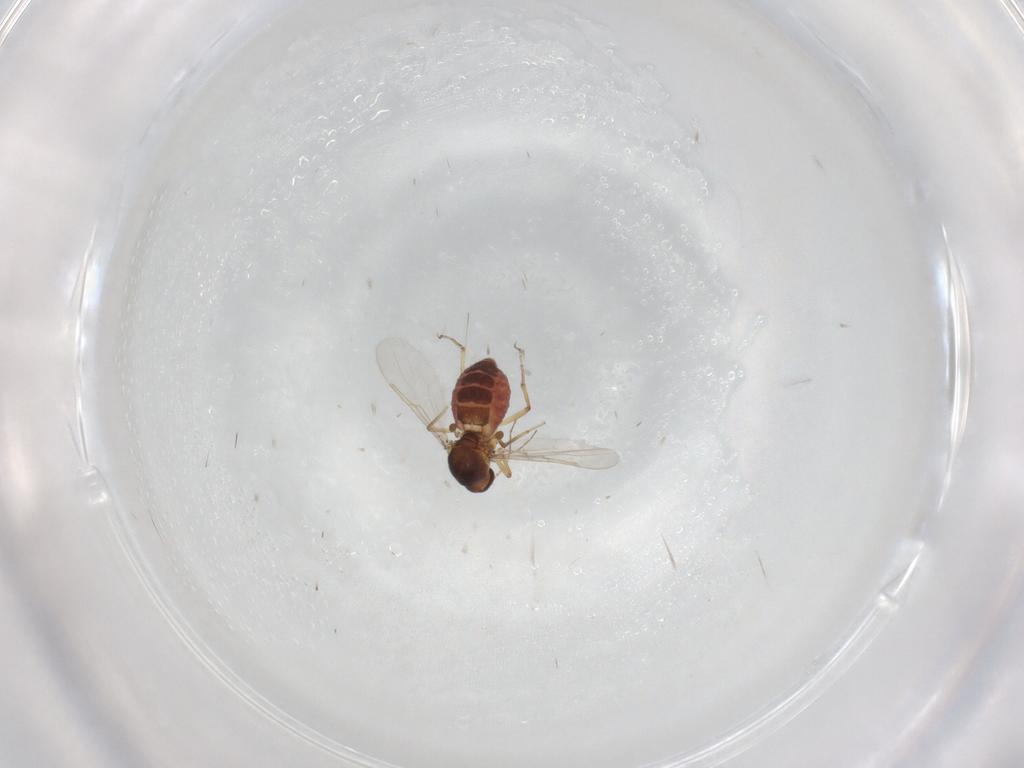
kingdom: Animalia
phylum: Arthropoda
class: Insecta
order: Diptera
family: Ceratopogonidae
